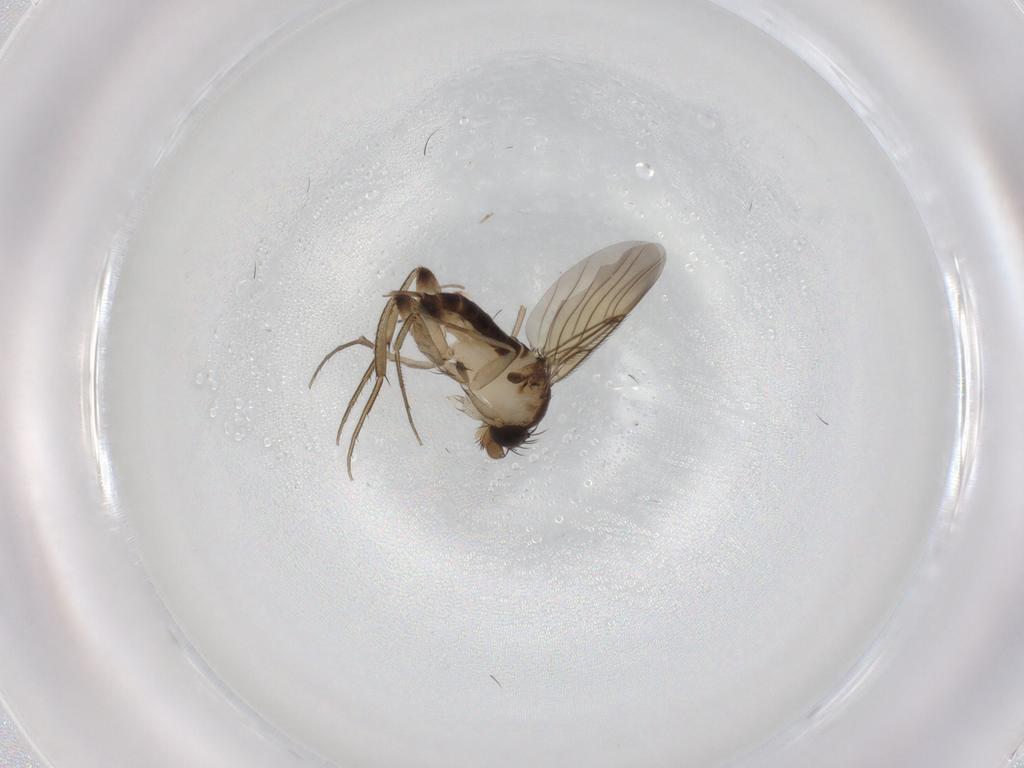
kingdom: Animalia
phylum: Arthropoda
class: Insecta
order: Diptera
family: Phoridae
